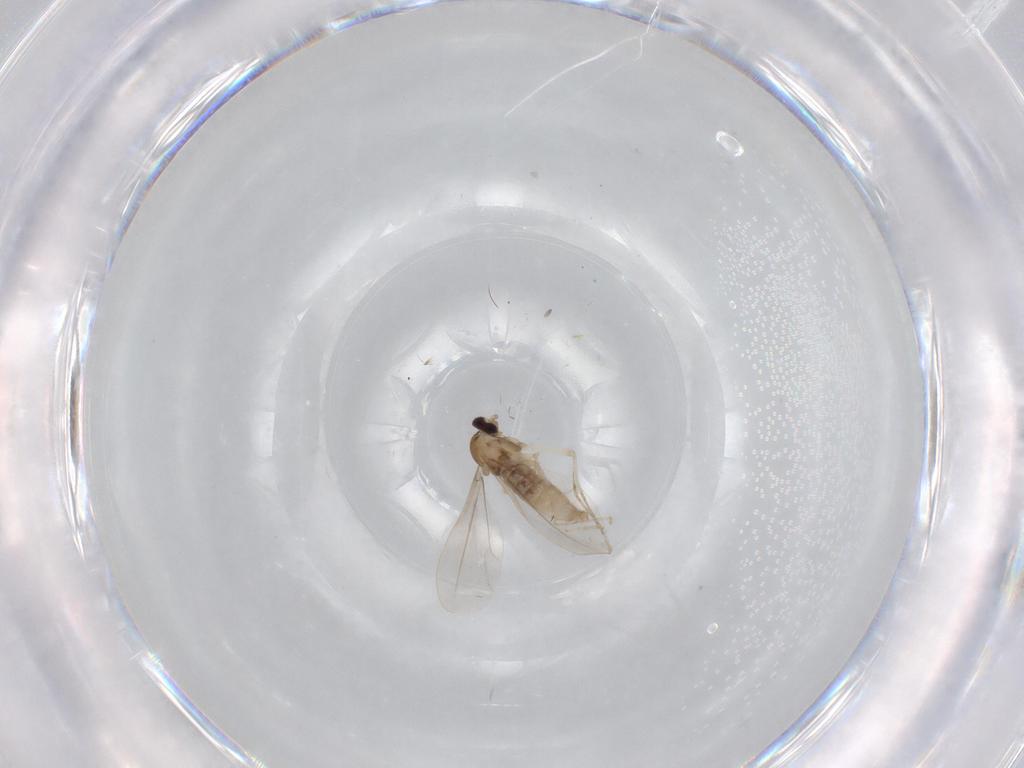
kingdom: Animalia
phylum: Arthropoda
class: Insecta
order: Diptera
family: Cecidomyiidae
